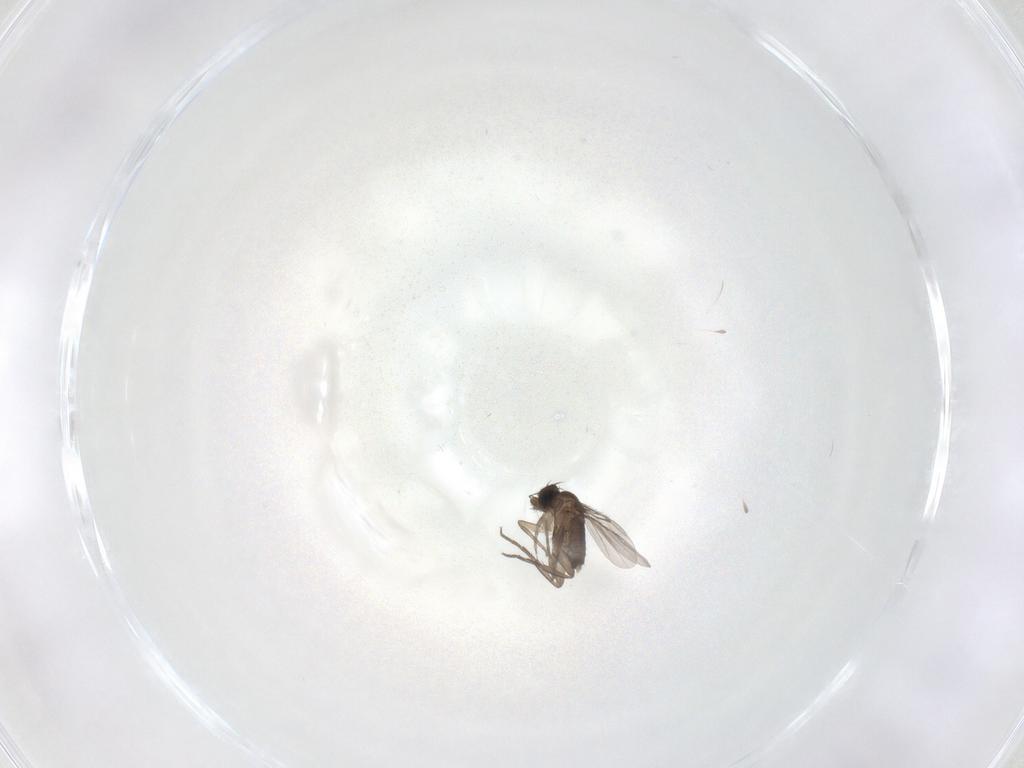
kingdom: Animalia
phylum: Arthropoda
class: Insecta
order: Diptera
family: Phoridae
